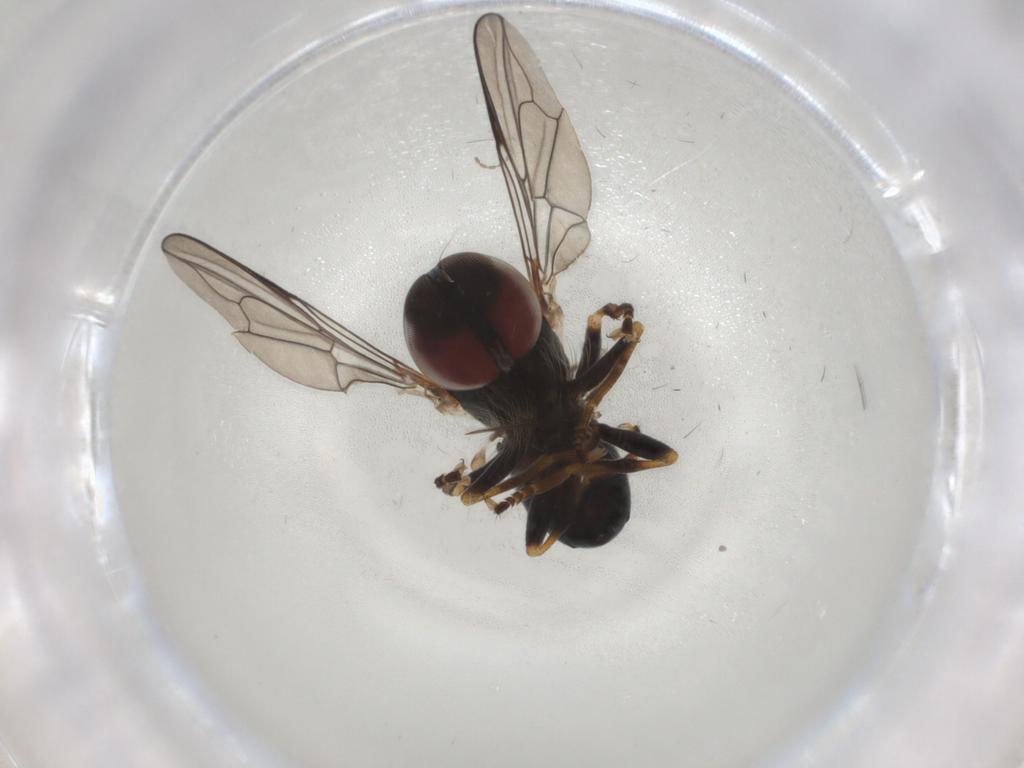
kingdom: Animalia
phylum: Arthropoda
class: Insecta
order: Diptera
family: Pipunculidae
